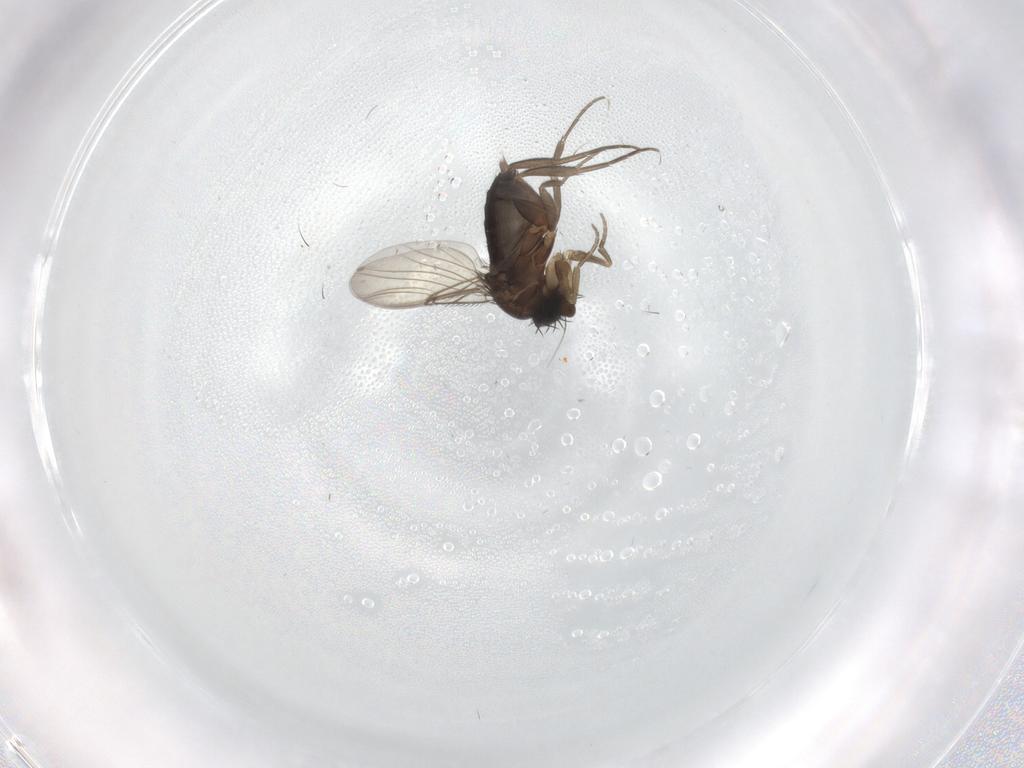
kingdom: Animalia
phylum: Arthropoda
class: Insecta
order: Diptera
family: Phoridae
